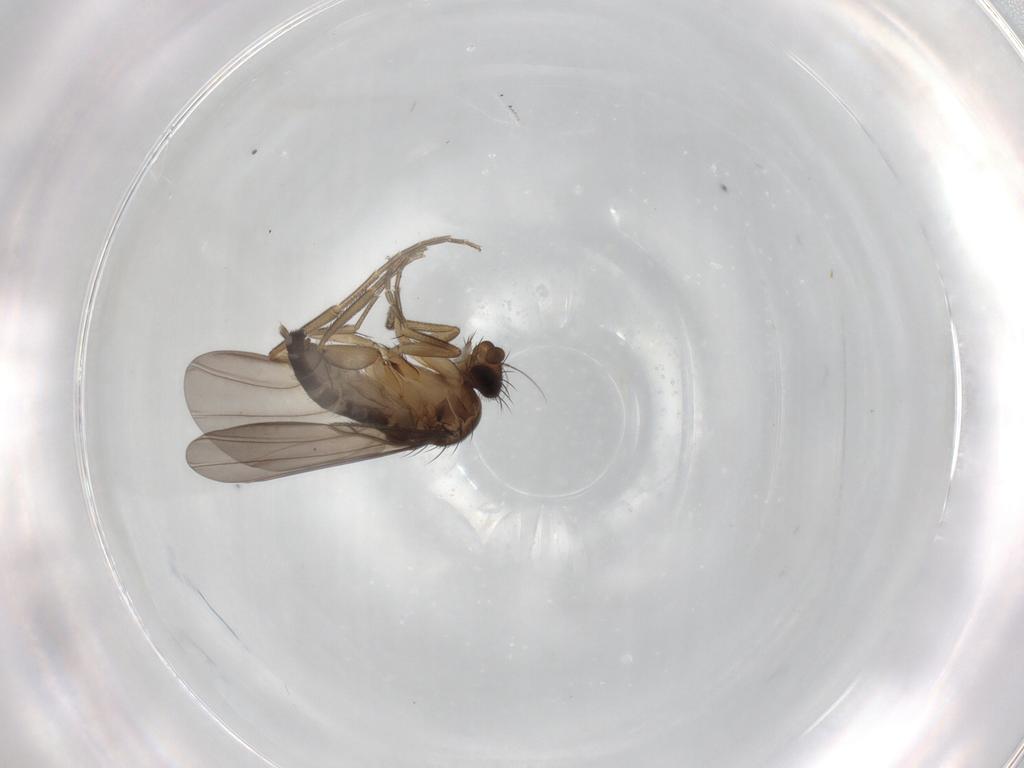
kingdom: Animalia
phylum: Arthropoda
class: Insecta
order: Diptera
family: Phoridae
